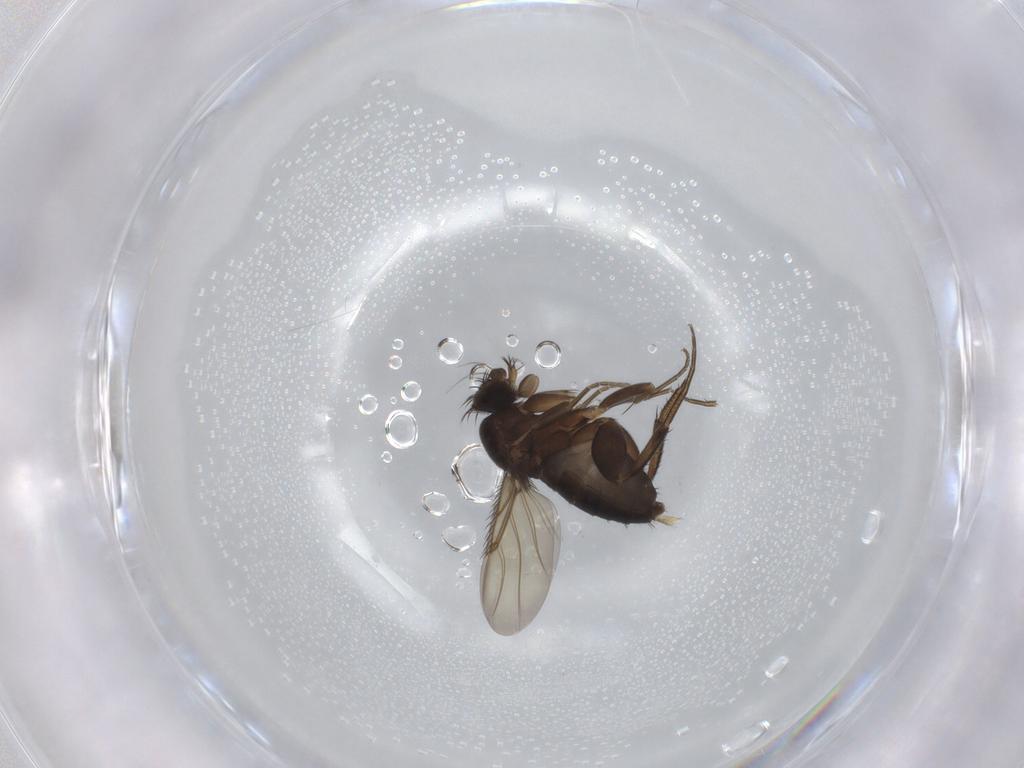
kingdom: Animalia
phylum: Arthropoda
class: Insecta
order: Diptera
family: Phoridae
